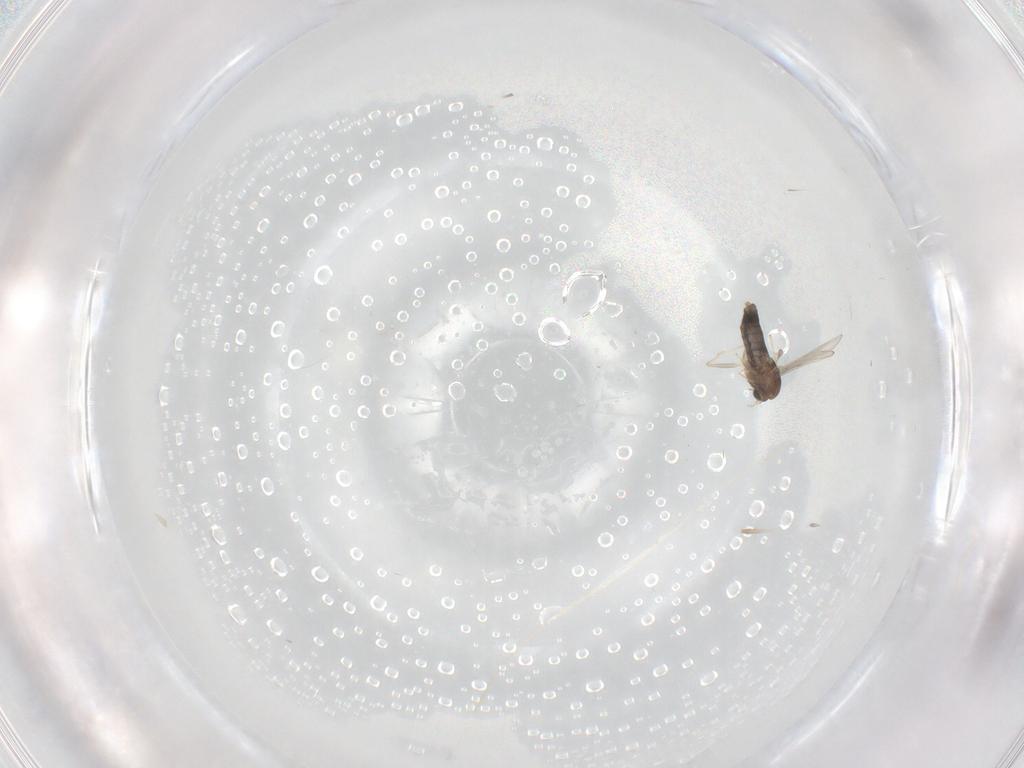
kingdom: Animalia
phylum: Arthropoda
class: Insecta
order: Diptera
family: Chironomidae
